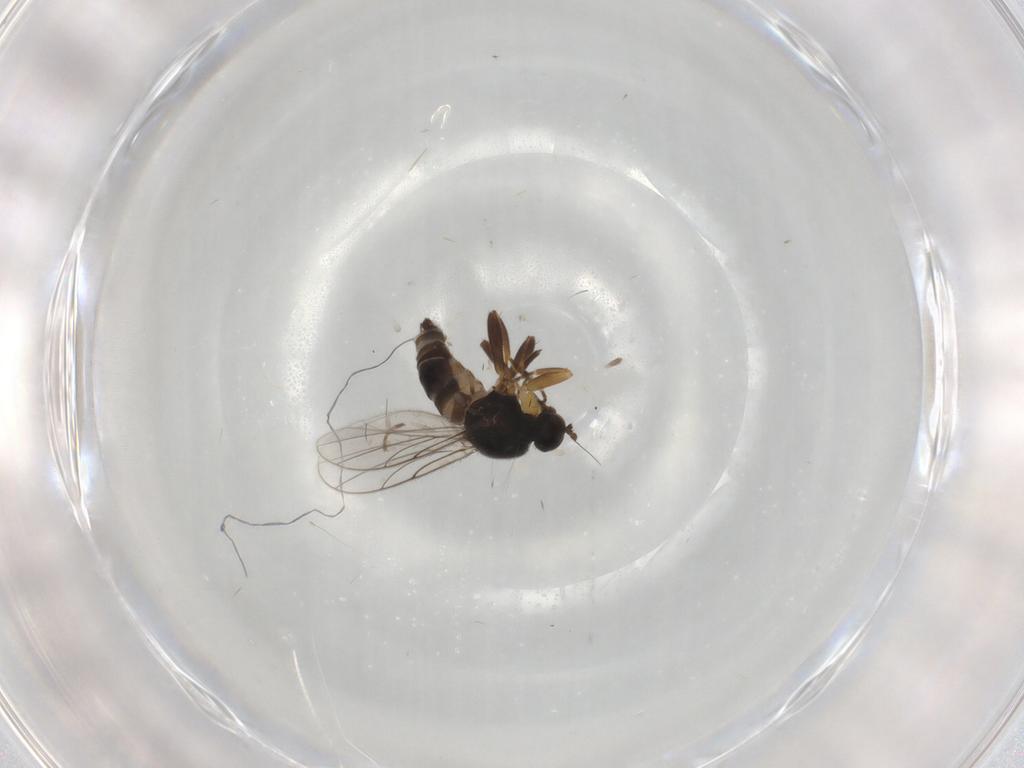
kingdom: Animalia
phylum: Arthropoda
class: Insecta
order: Diptera
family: Hybotidae
